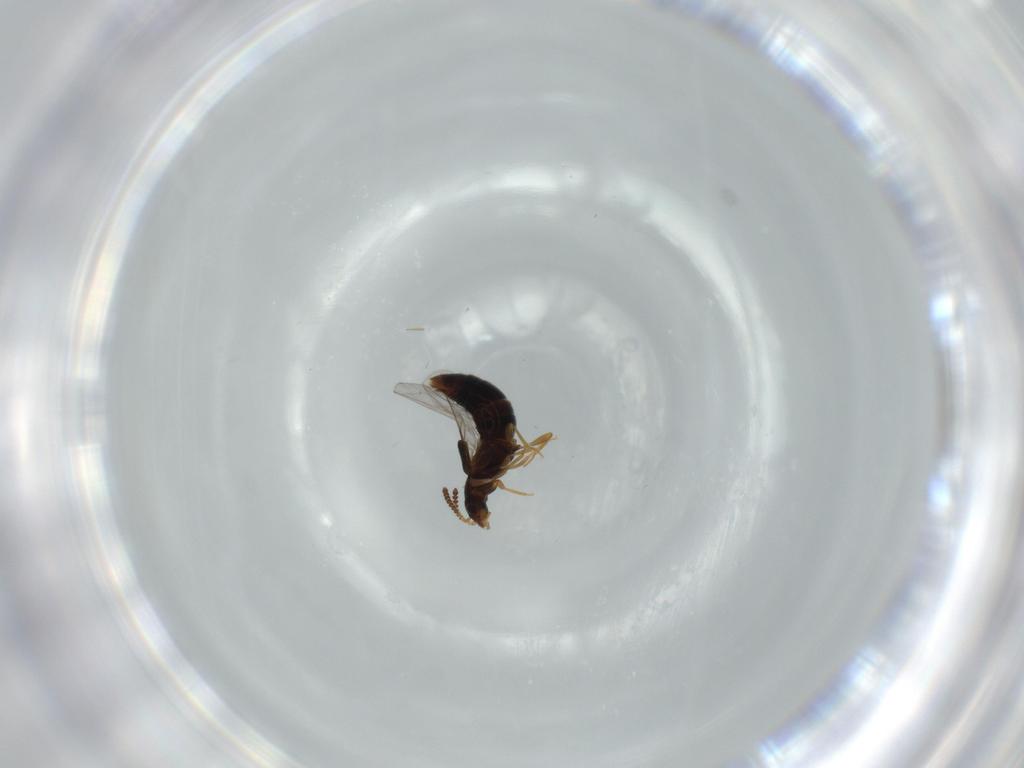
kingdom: Animalia
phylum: Arthropoda
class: Insecta
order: Coleoptera
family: Staphylinidae
